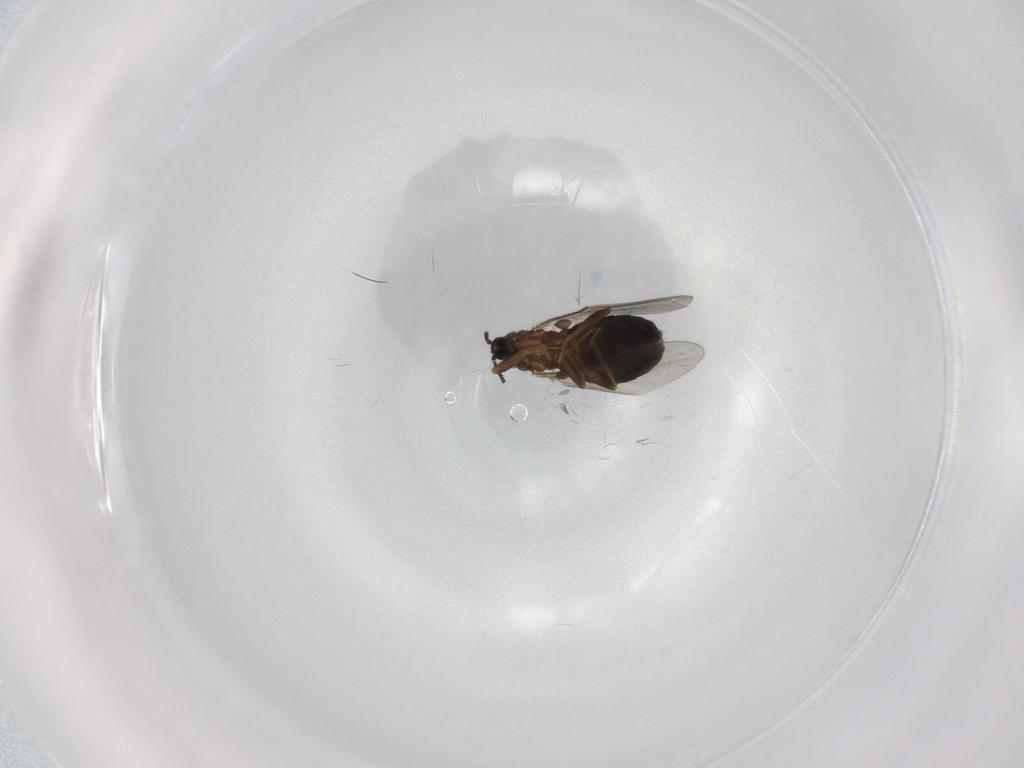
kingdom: Animalia
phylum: Arthropoda
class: Insecta
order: Diptera
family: Scatopsidae
